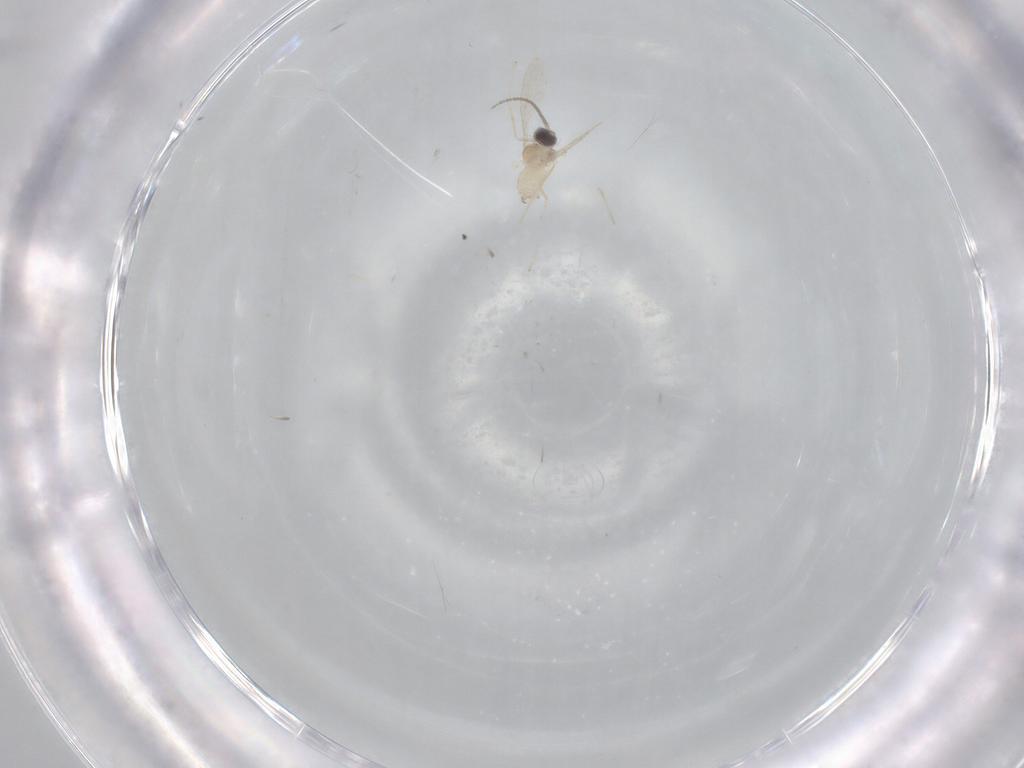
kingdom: Animalia
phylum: Arthropoda
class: Insecta
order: Diptera
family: Cecidomyiidae
